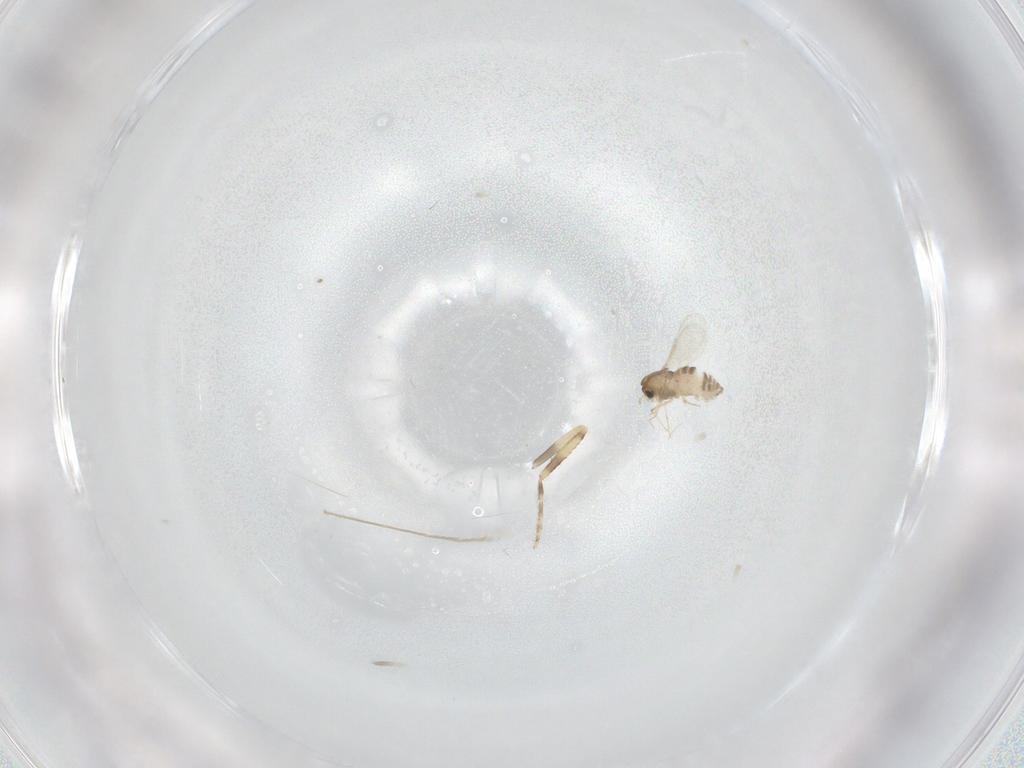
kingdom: Animalia
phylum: Arthropoda
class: Insecta
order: Diptera
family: Chironomidae
